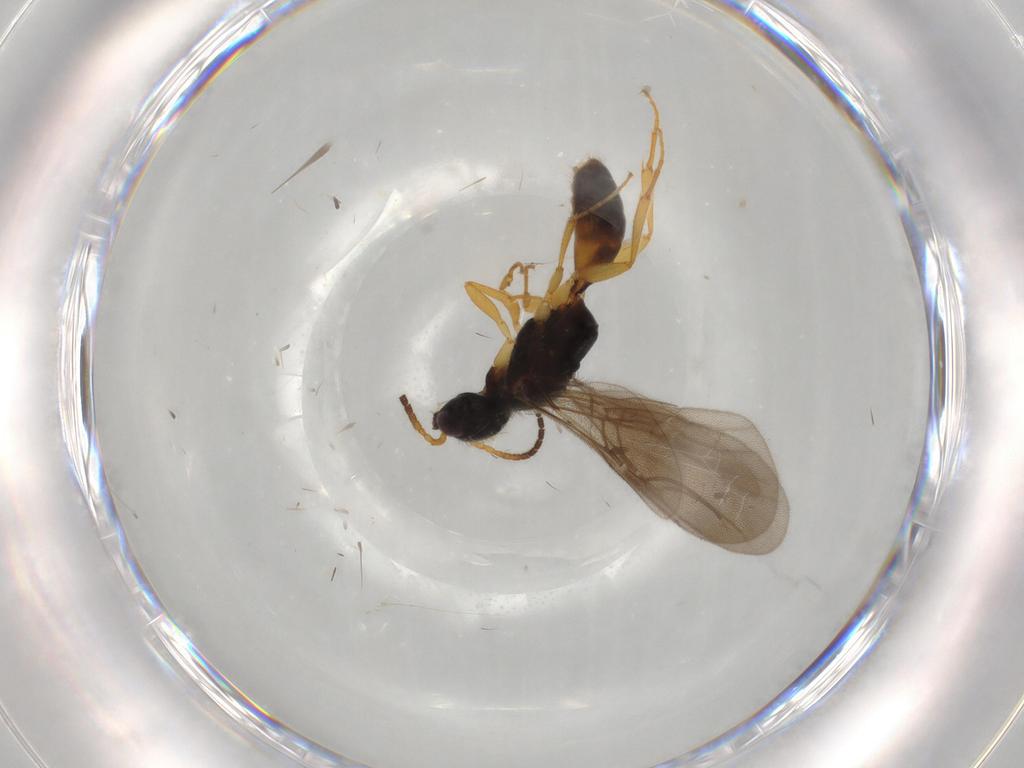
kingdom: Animalia
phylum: Arthropoda
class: Insecta
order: Hymenoptera
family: Bethylidae
